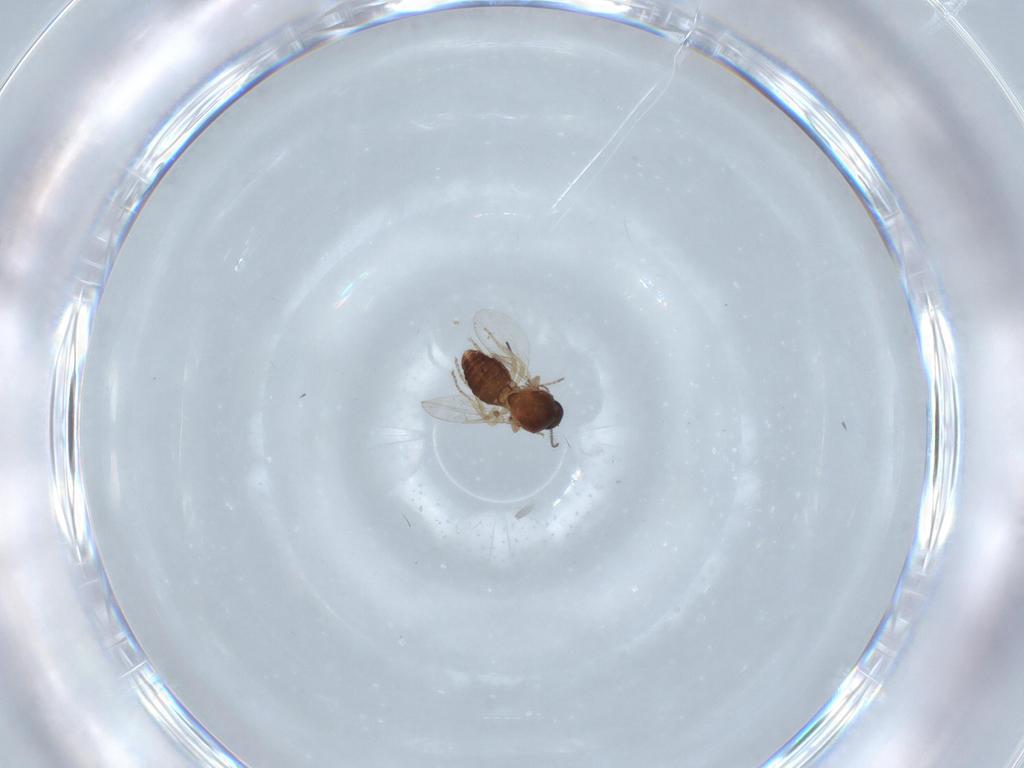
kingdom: Animalia
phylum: Arthropoda
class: Insecta
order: Diptera
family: Ceratopogonidae
